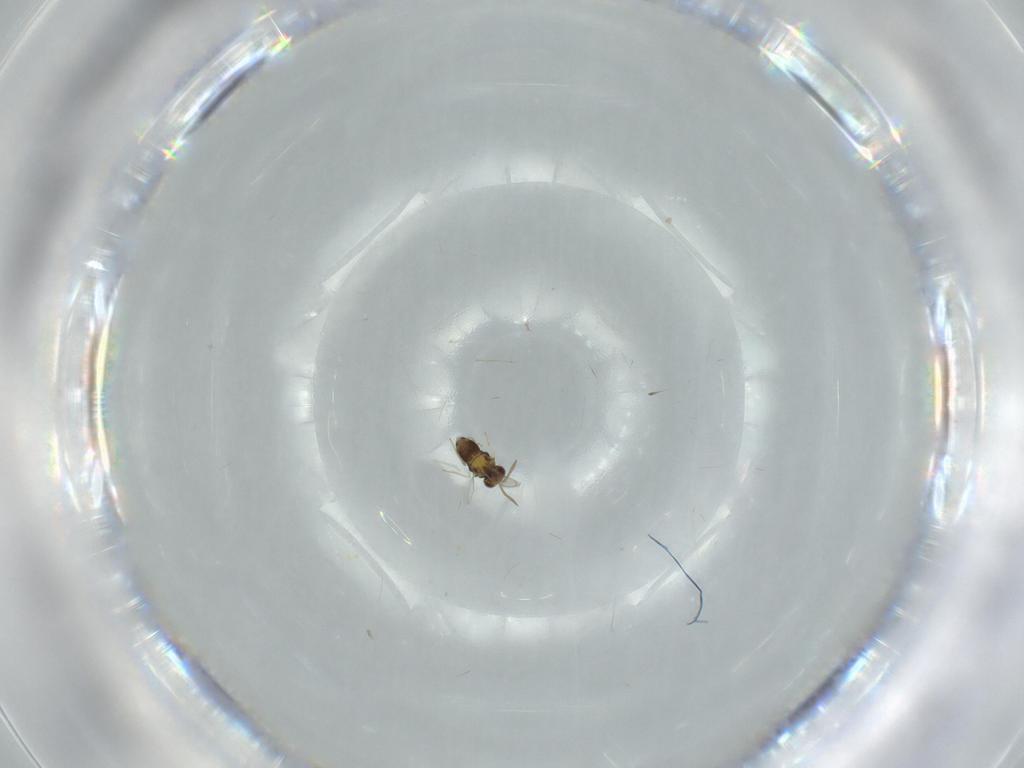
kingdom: Animalia
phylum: Arthropoda
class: Insecta
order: Hymenoptera
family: Aphelinidae
